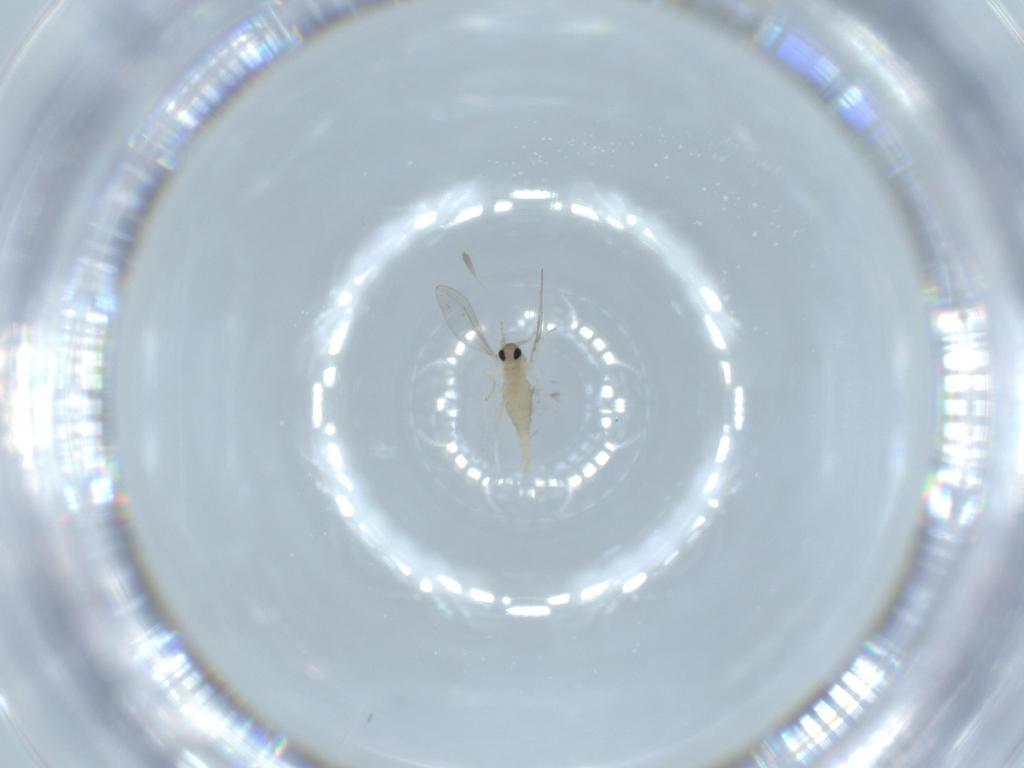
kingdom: Animalia
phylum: Arthropoda
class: Insecta
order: Diptera
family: Cecidomyiidae
